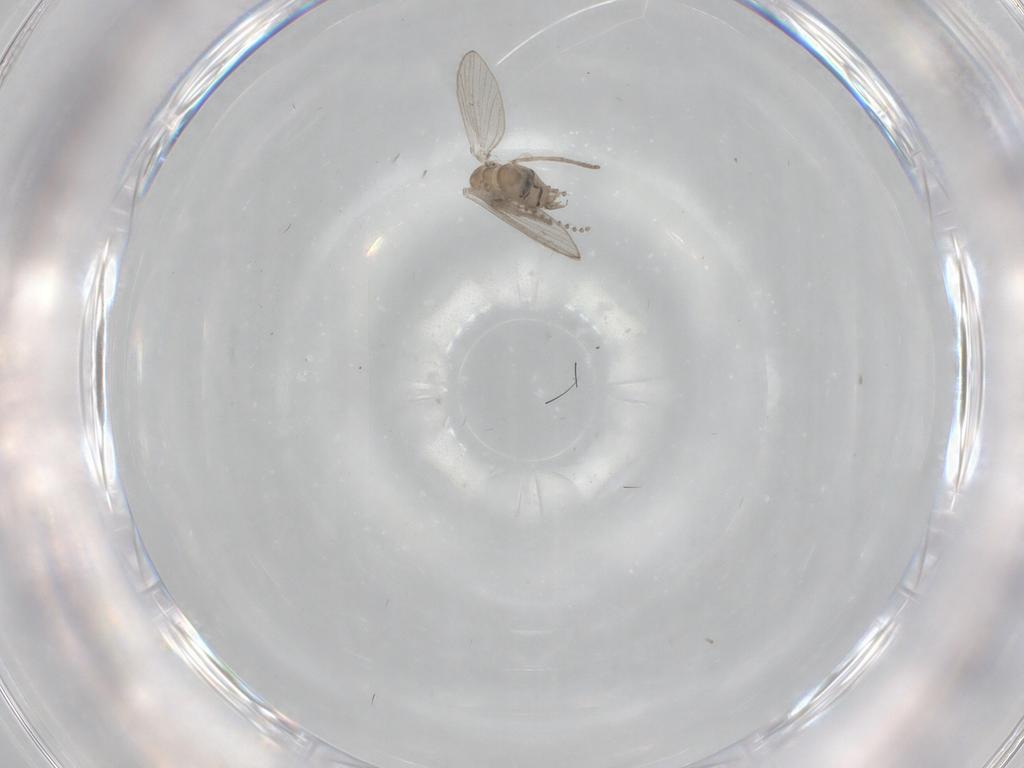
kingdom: Animalia
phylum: Arthropoda
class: Insecta
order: Diptera
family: Psychodidae
